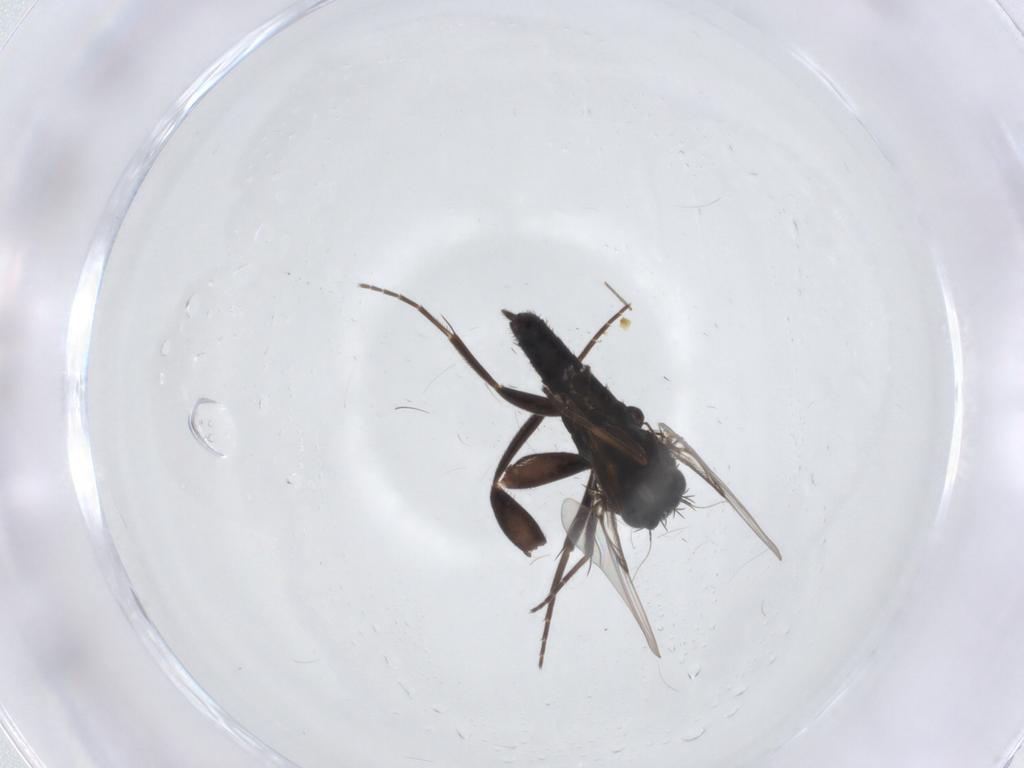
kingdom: Animalia
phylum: Arthropoda
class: Insecta
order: Diptera
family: Phoridae
